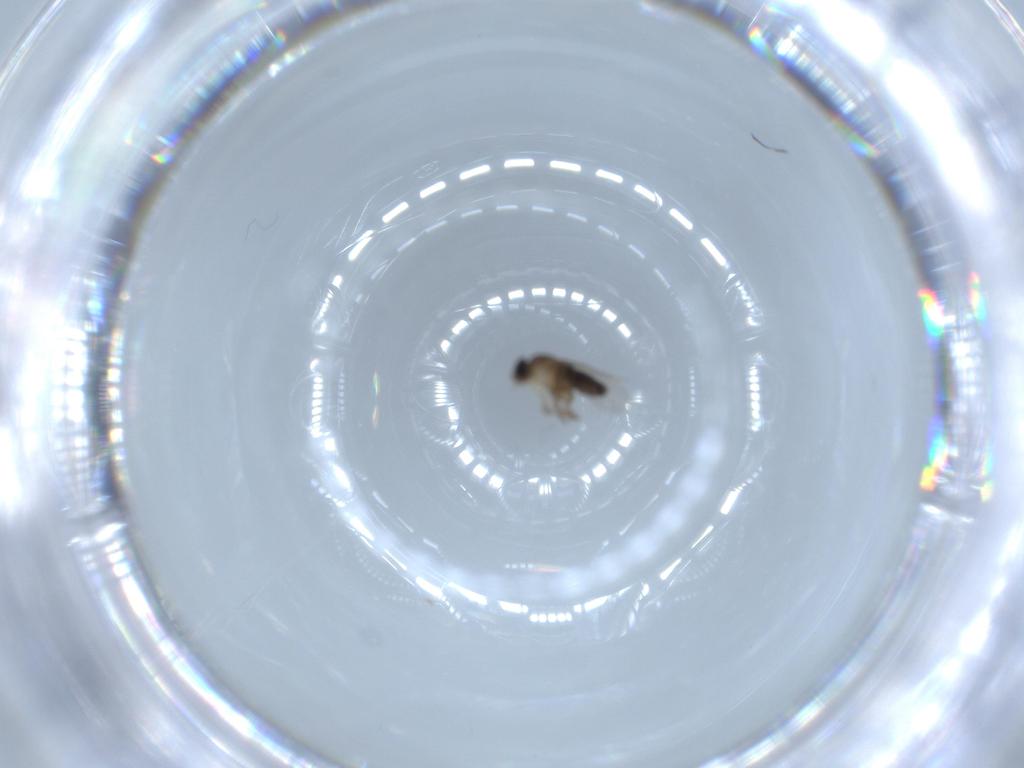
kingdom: Animalia
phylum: Arthropoda
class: Insecta
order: Diptera
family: Phoridae
